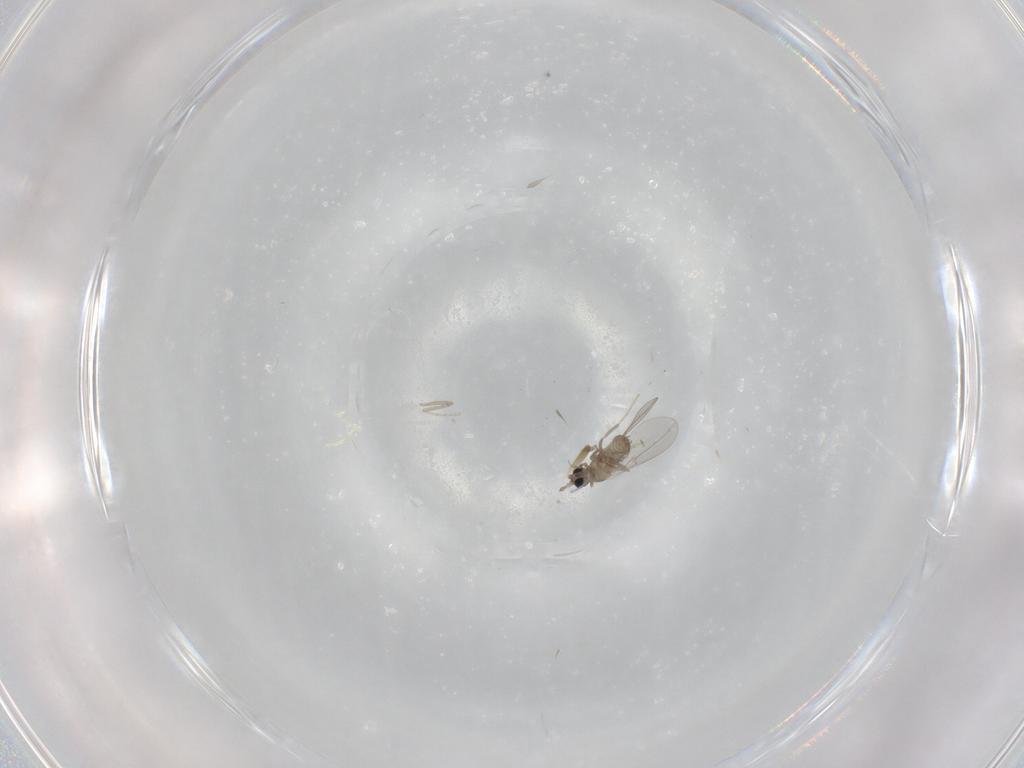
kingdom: Animalia
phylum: Arthropoda
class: Insecta
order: Diptera
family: Cecidomyiidae
